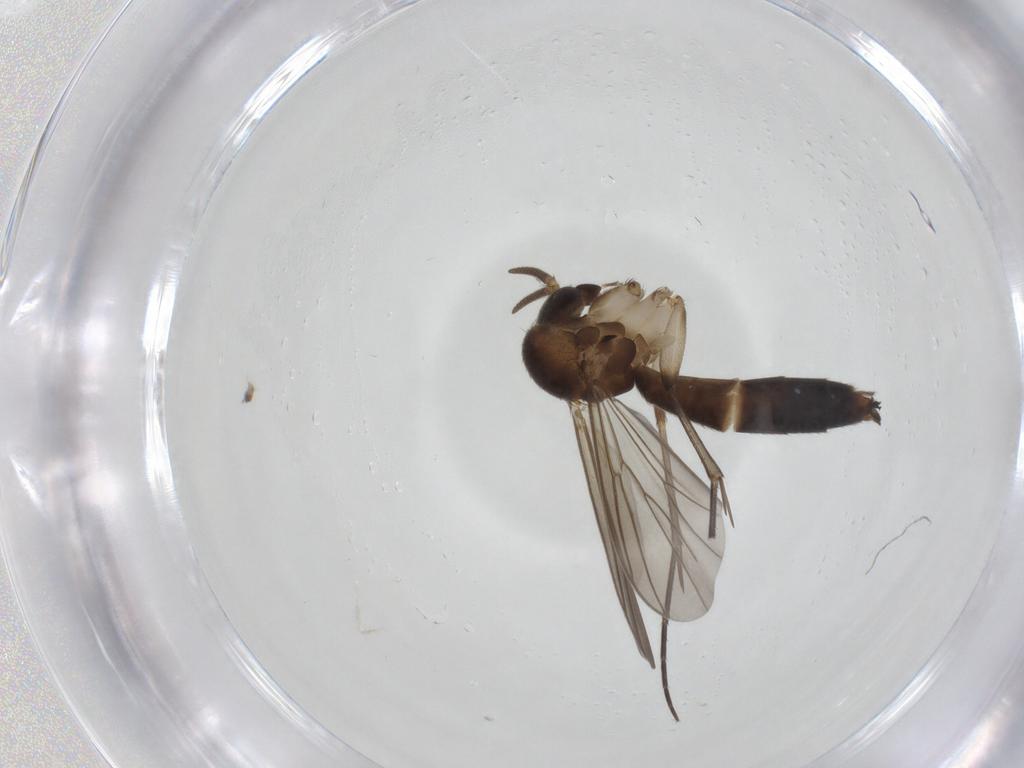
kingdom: Animalia
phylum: Arthropoda
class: Insecta
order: Diptera
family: Mycetophilidae
